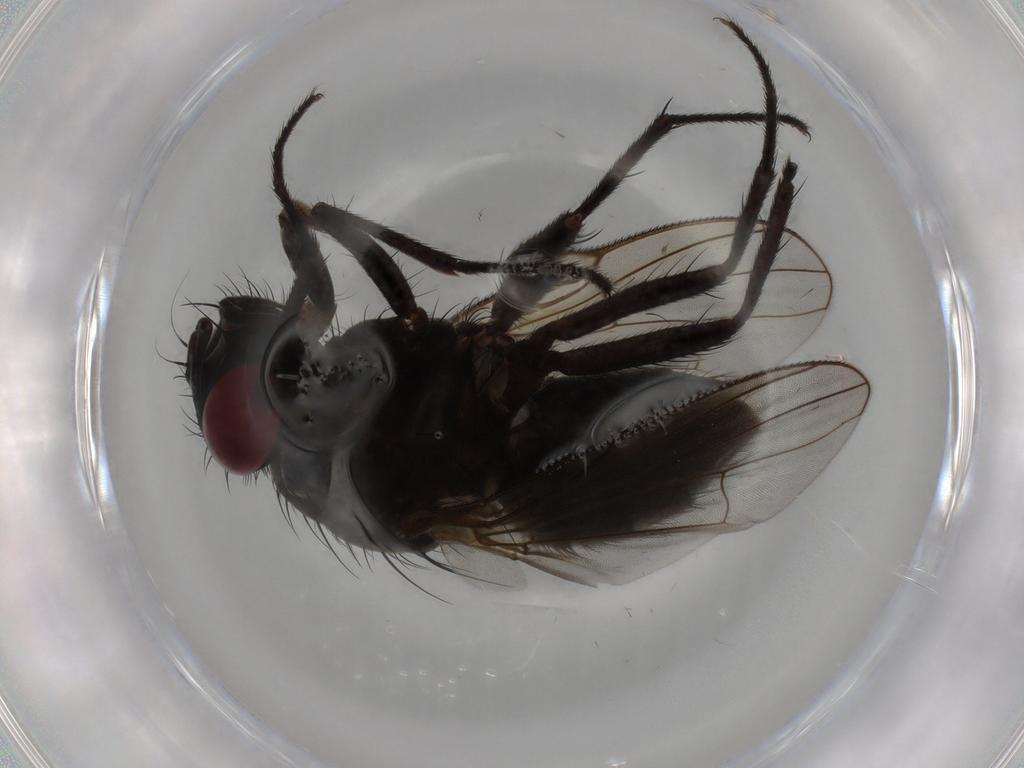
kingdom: Animalia
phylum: Arthropoda
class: Insecta
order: Diptera
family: Muscidae
